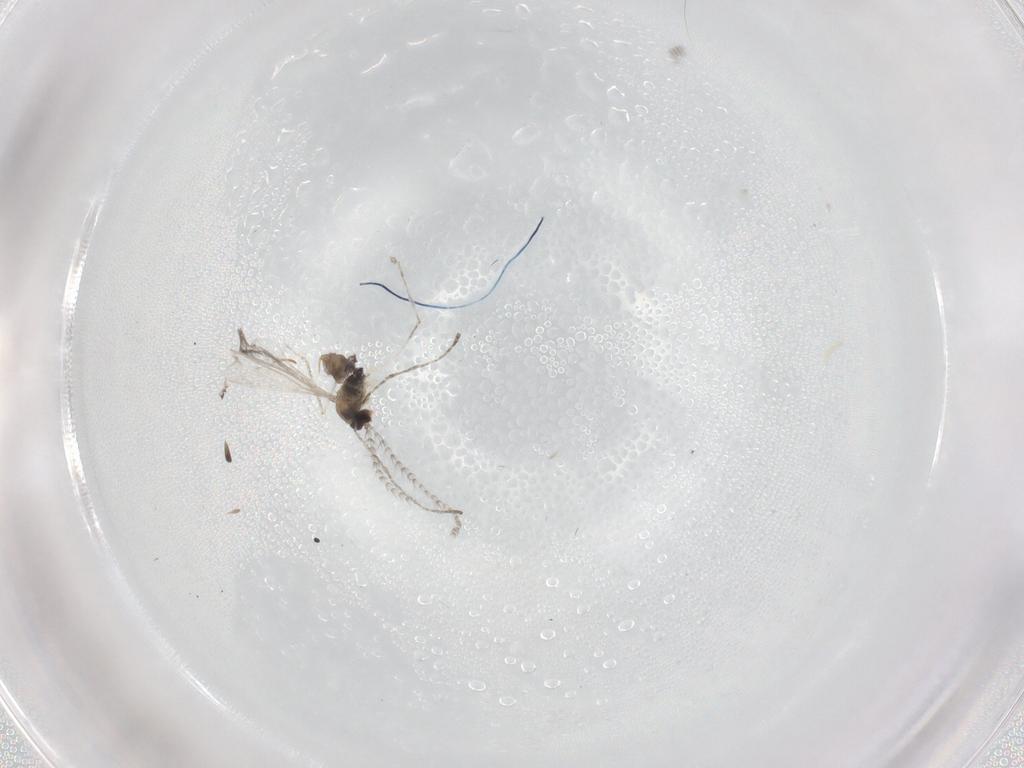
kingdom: Animalia
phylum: Arthropoda
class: Insecta
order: Diptera
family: Cecidomyiidae
